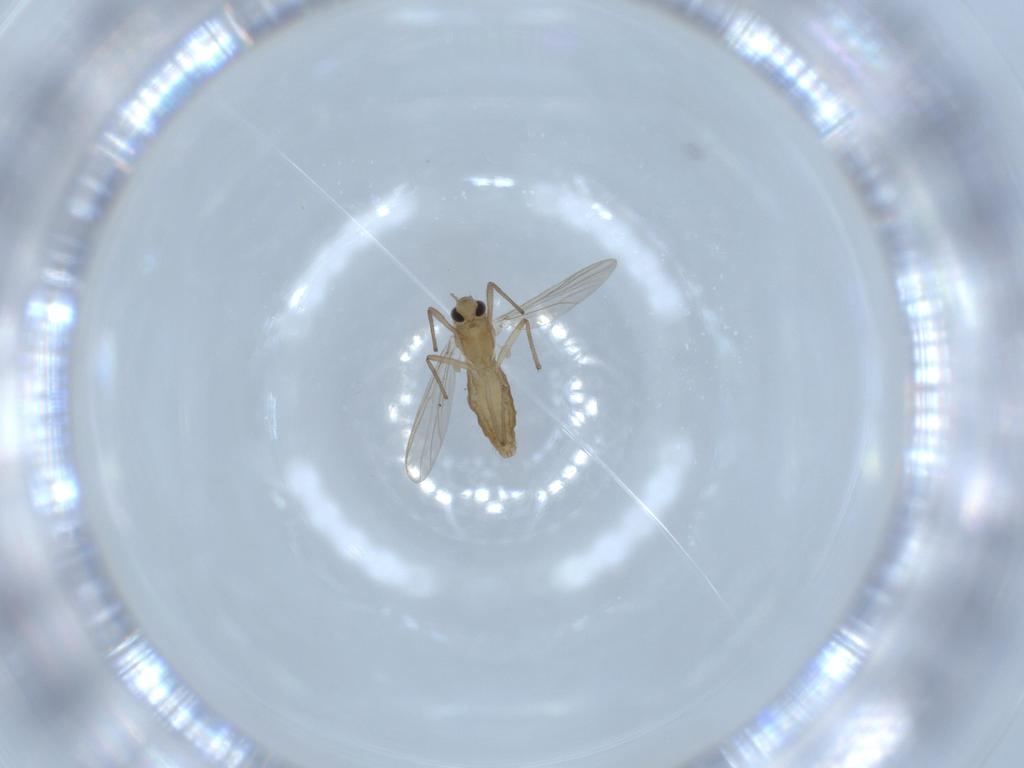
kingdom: Animalia
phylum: Arthropoda
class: Insecta
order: Diptera
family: Chironomidae
